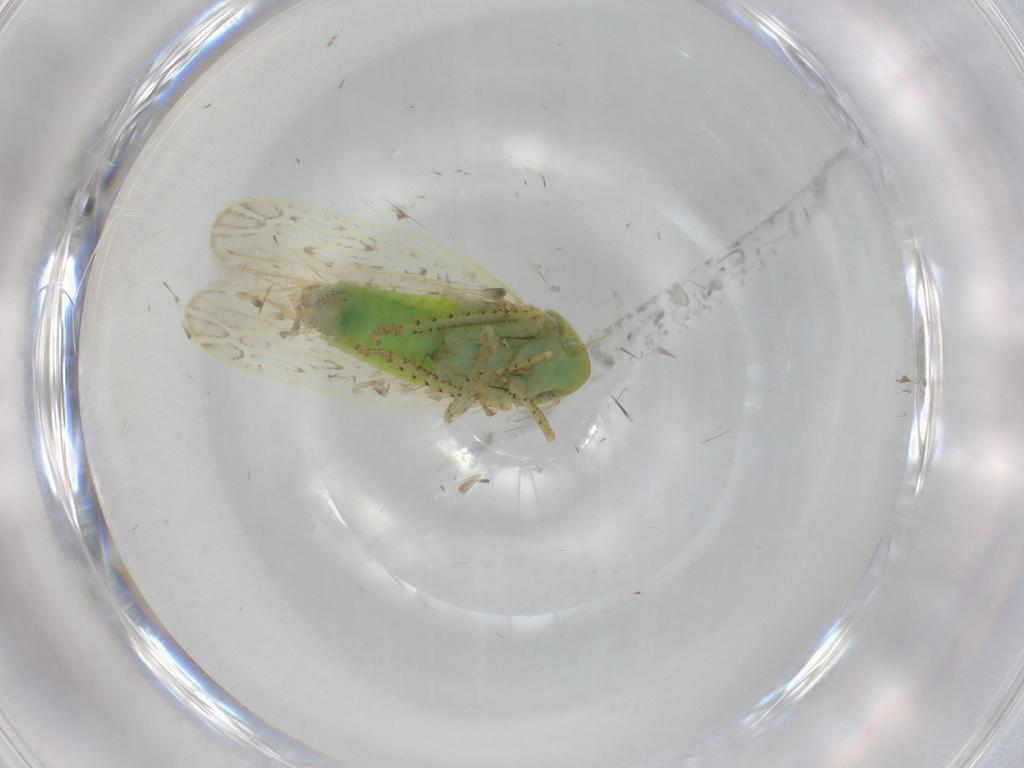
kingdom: Animalia
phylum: Arthropoda
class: Insecta
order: Hemiptera
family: Cicadellidae
